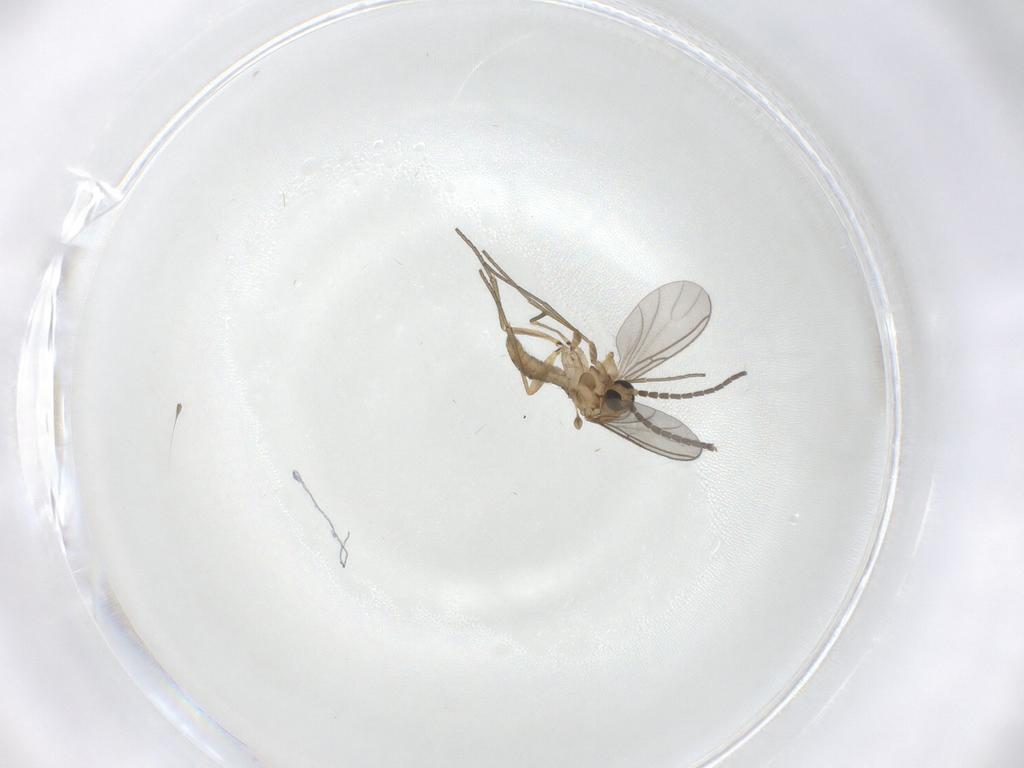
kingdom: Animalia
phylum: Arthropoda
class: Insecta
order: Diptera
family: Sciaridae
